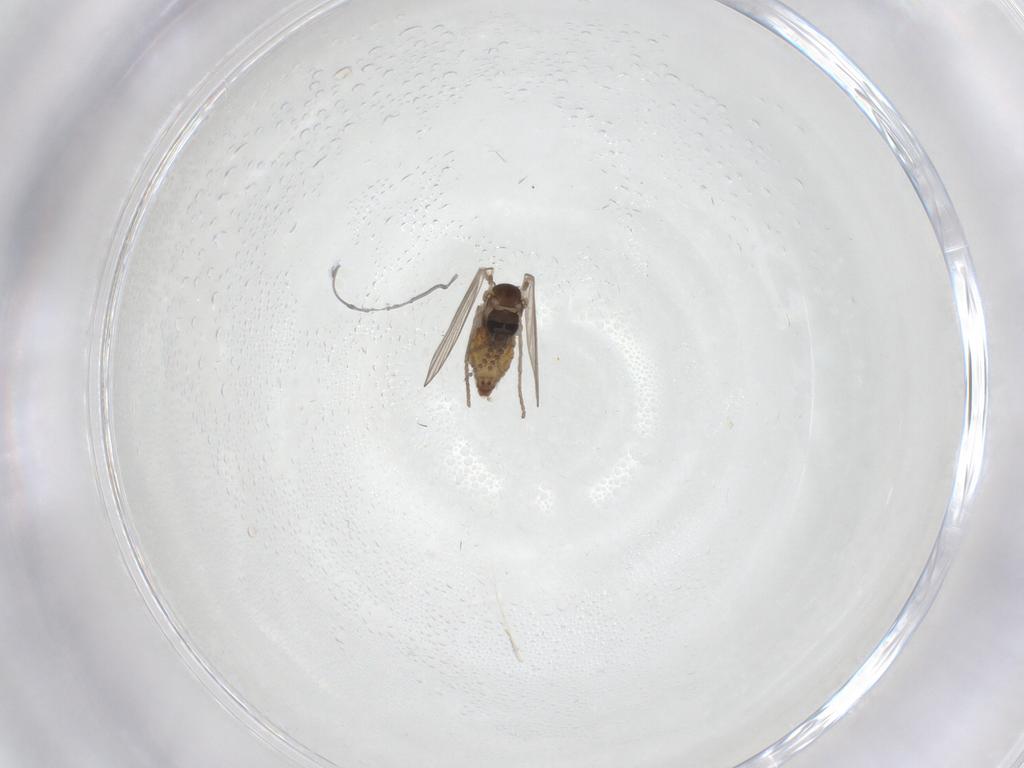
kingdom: Animalia
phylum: Arthropoda
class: Insecta
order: Diptera
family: Psychodidae
